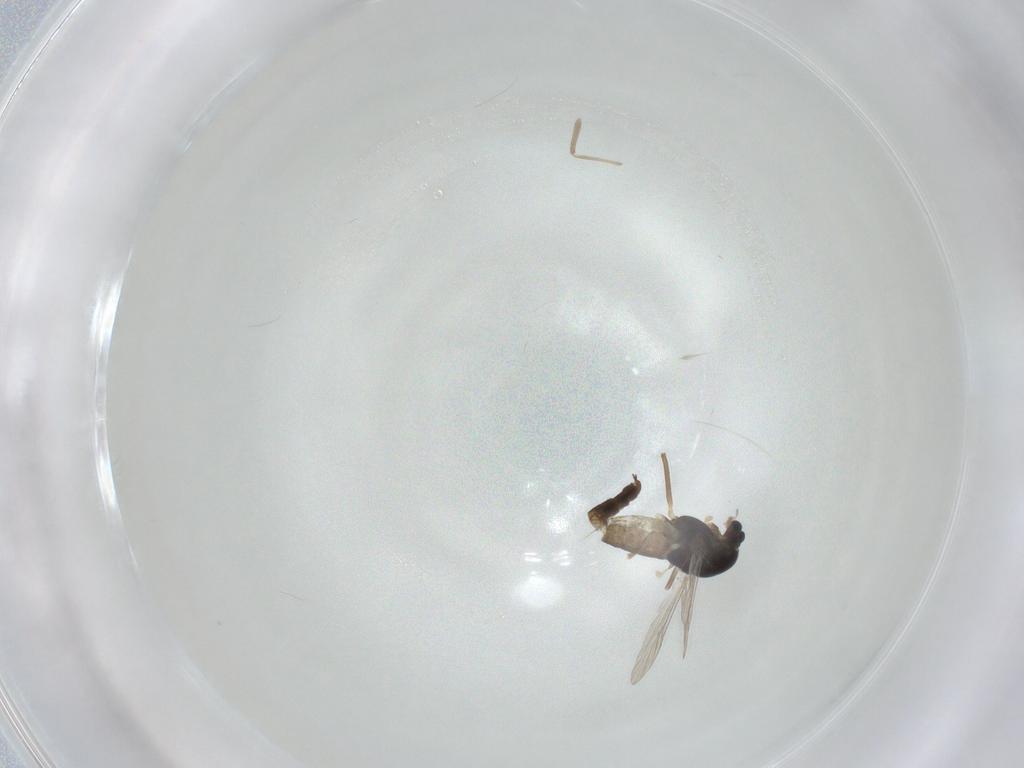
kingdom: Animalia
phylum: Arthropoda
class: Insecta
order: Diptera
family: Chironomidae
